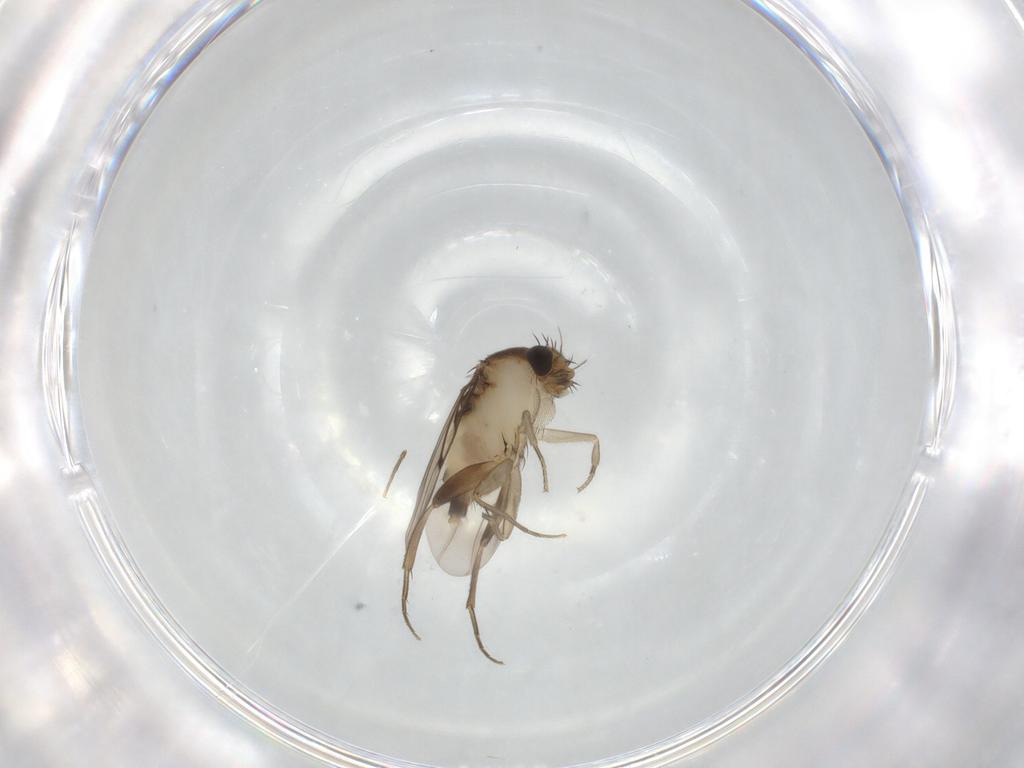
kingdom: Animalia
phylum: Arthropoda
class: Insecta
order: Diptera
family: Phoridae
